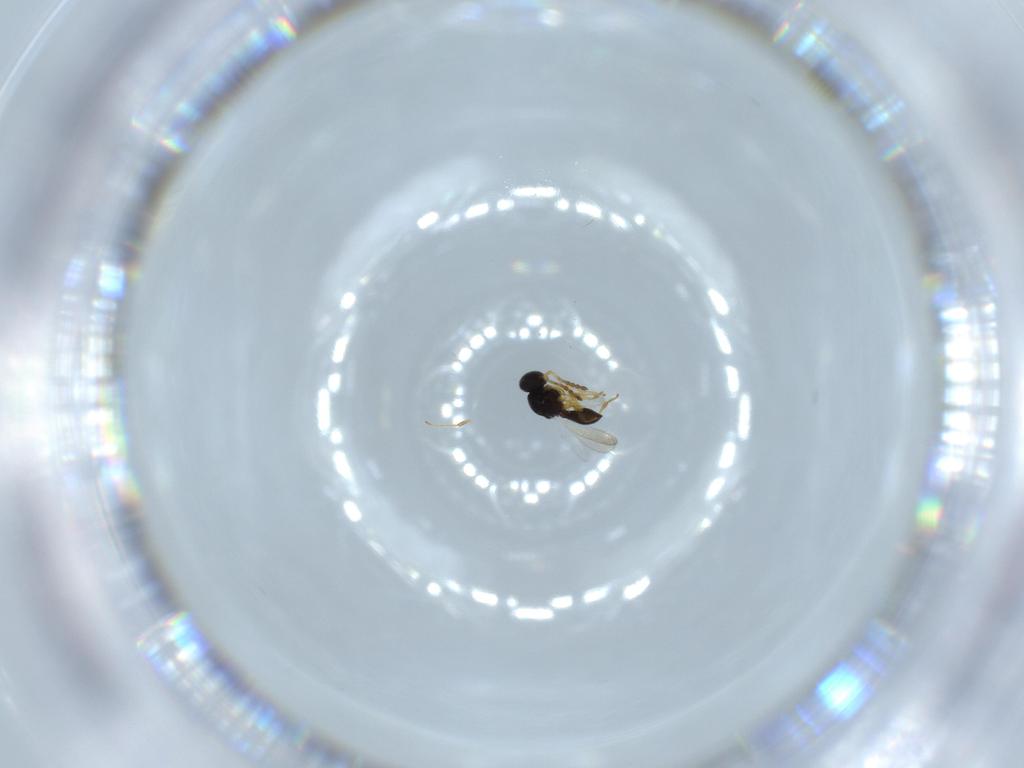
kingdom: Animalia
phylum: Arthropoda
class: Insecta
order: Hymenoptera
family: Platygastridae
